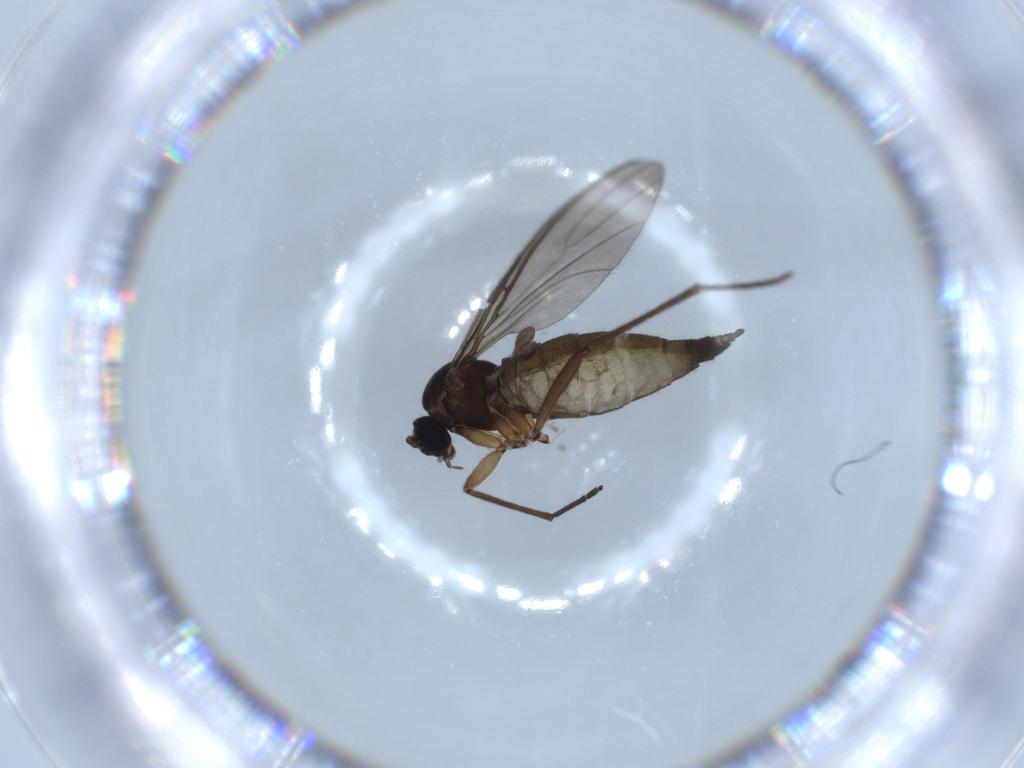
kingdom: Animalia
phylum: Arthropoda
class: Insecta
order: Diptera
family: Sciaridae
